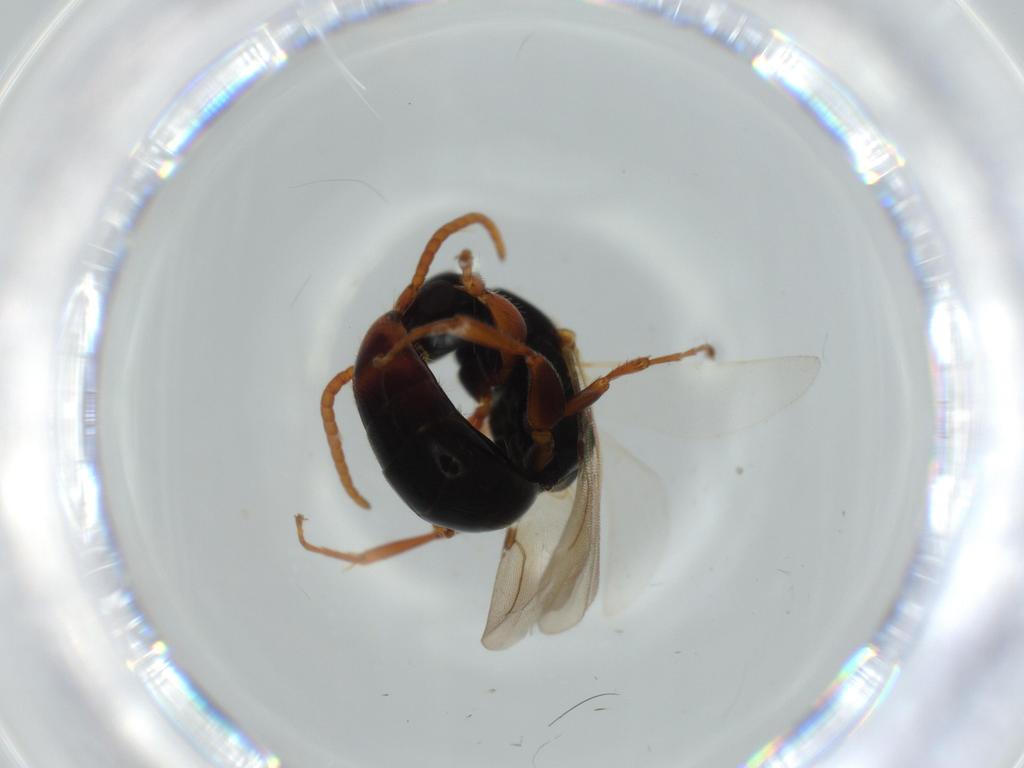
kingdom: Animalia
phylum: Arthropoda
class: Insecta
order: Hymenoptera
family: Bethylidae
